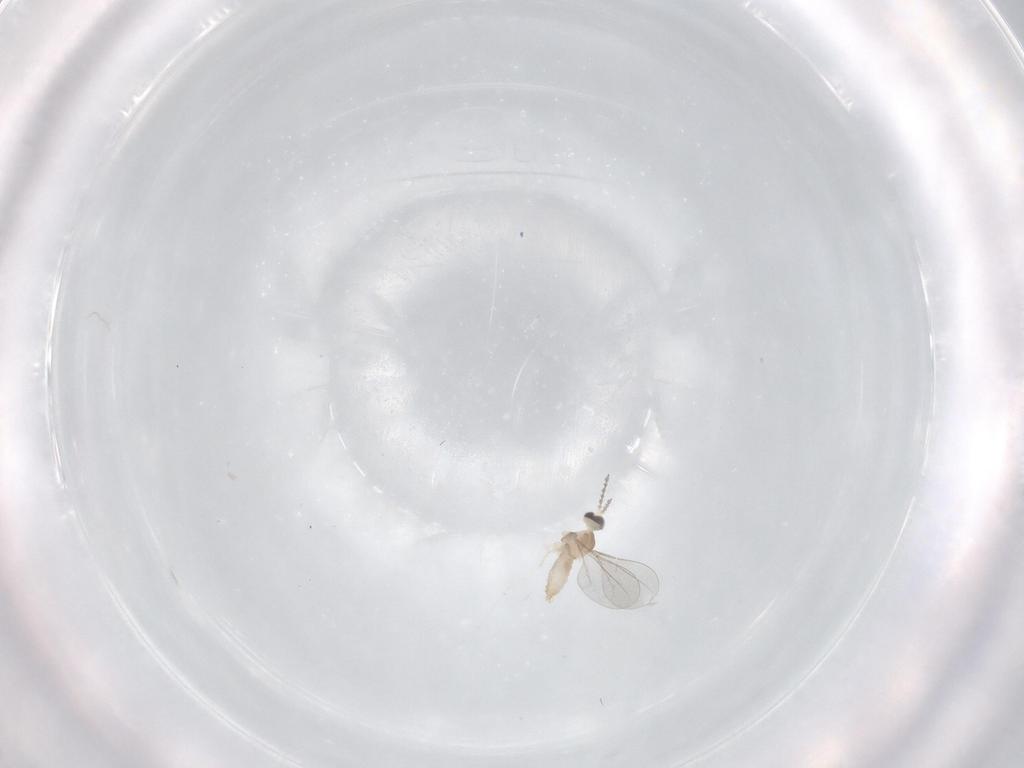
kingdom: Animalia
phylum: Arthropoda
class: Insecta
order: Diptera
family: Cecidomyiidae
